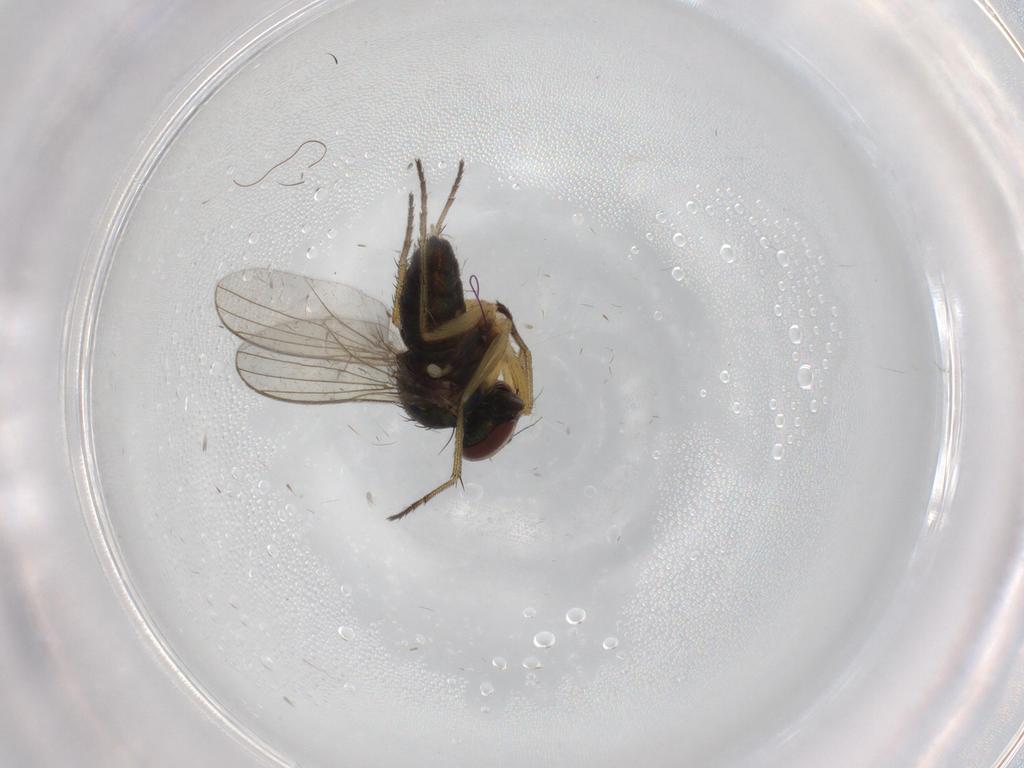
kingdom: Animalia
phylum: Arthropoda
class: Insecta
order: Diptera
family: Phoridae
